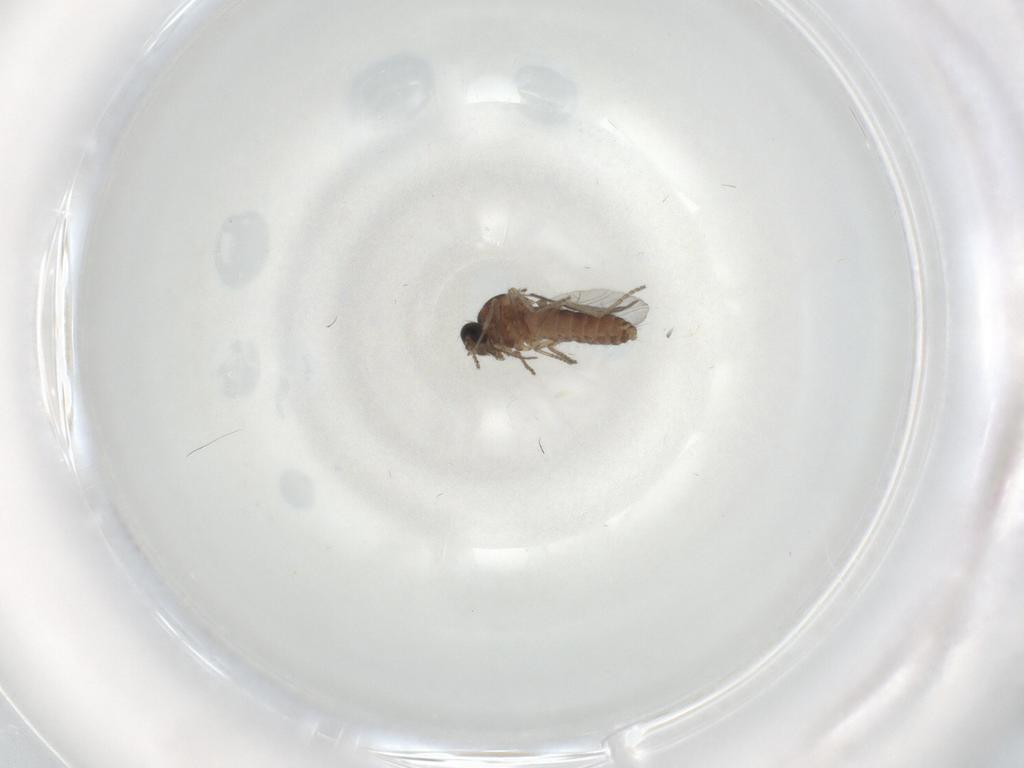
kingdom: Animalia
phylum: Arthropoda
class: Insecta
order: Diptera
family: Ceratopogonidae
